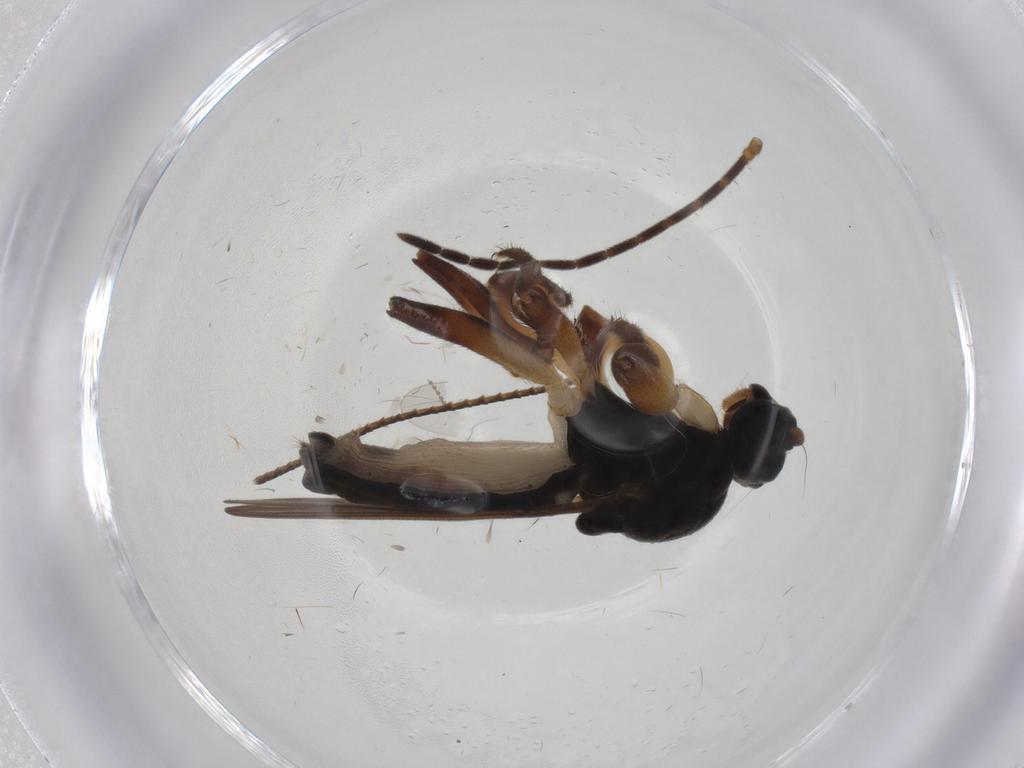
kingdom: Animalia
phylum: Arthropoda
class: Insecta
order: Diptera
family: Sphaeroceridae
